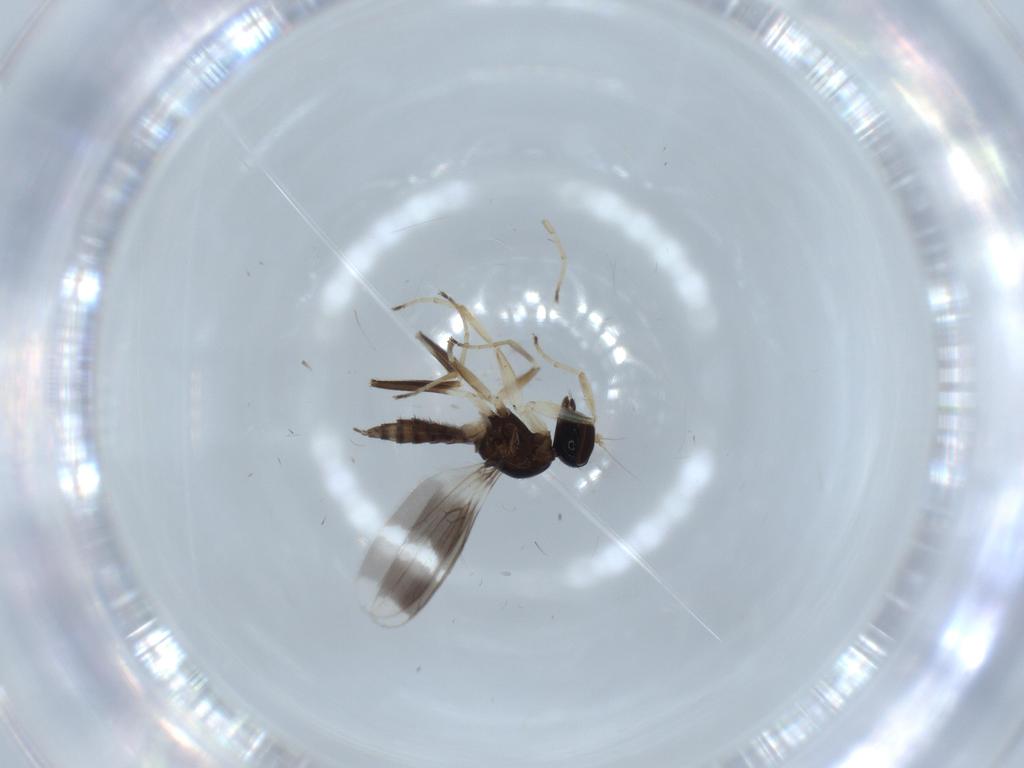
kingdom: Animalia
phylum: Arthropoda
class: Insecta
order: Diptera
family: Hybotidae
